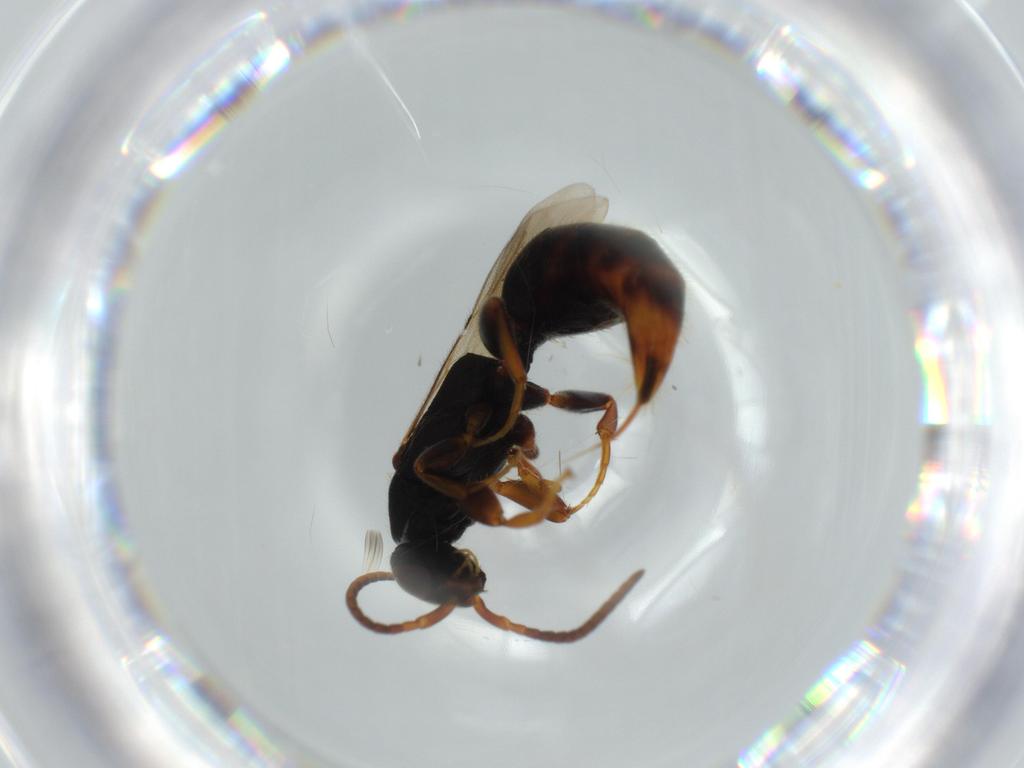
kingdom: Animalia
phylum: Arthropoda
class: Insecta
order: Hymenoptera
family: Bethylidae
